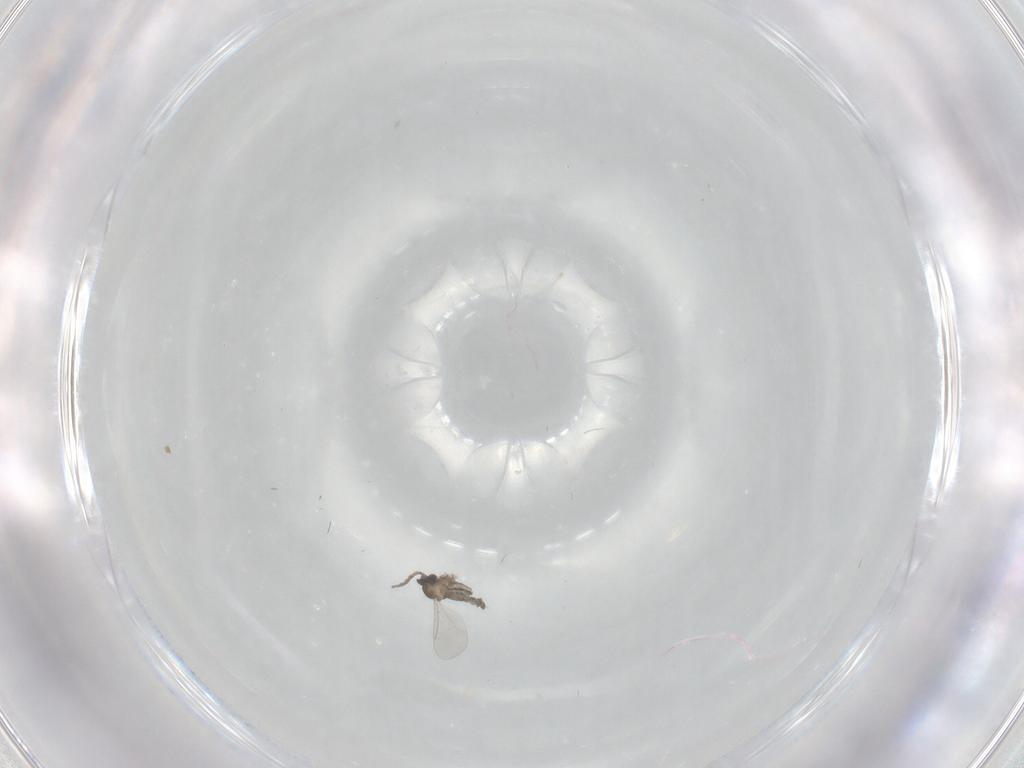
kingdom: Animalia
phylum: Arthropoda
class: Insecta
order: Diptera
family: Cecidomyiidae
